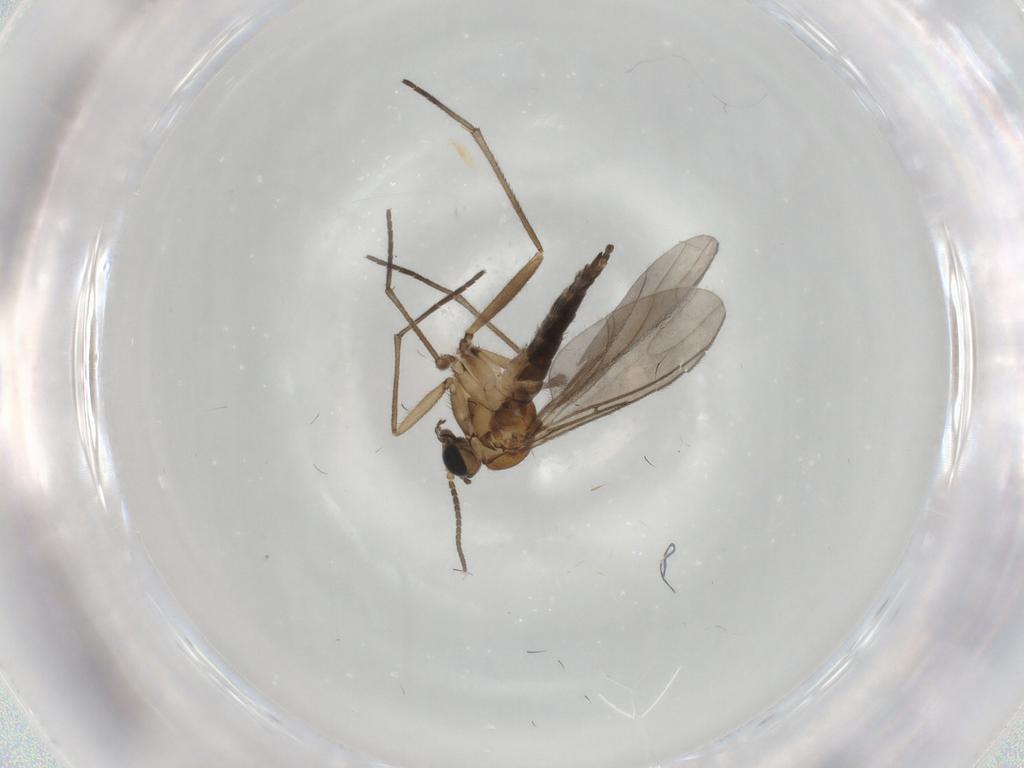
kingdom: Animalia
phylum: Arthropoda
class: Insecta
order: Diptera
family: Sciaridae
